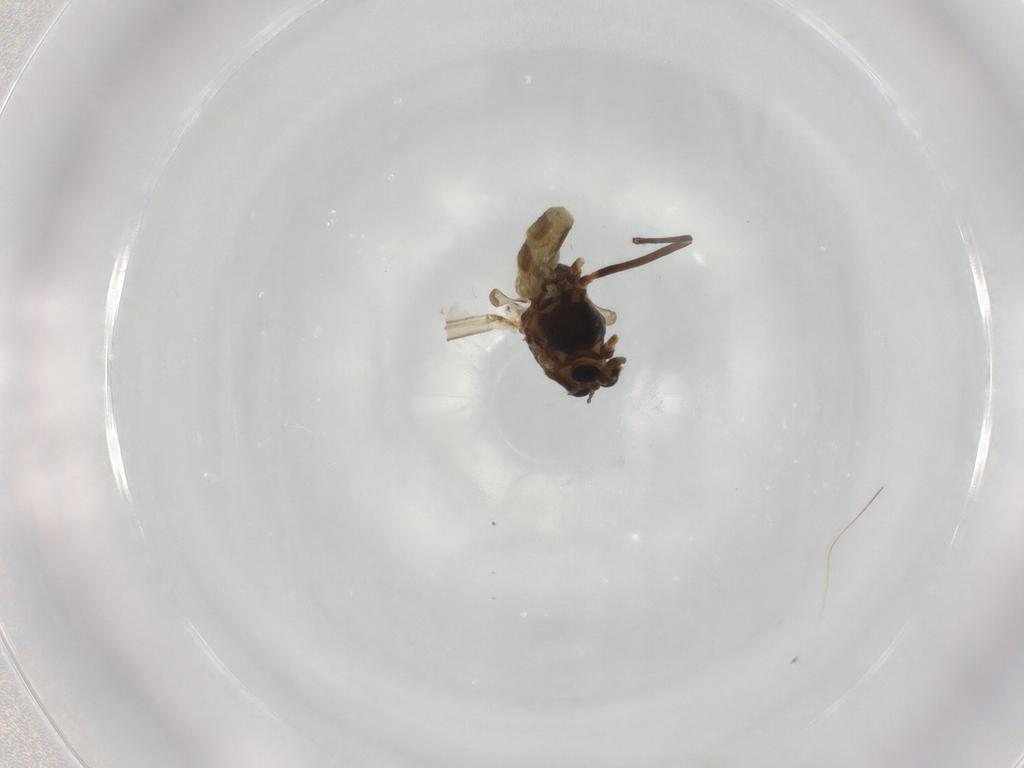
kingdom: Animalia
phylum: Arthropoda
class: Insecta
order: Diptera
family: Chironomidae
